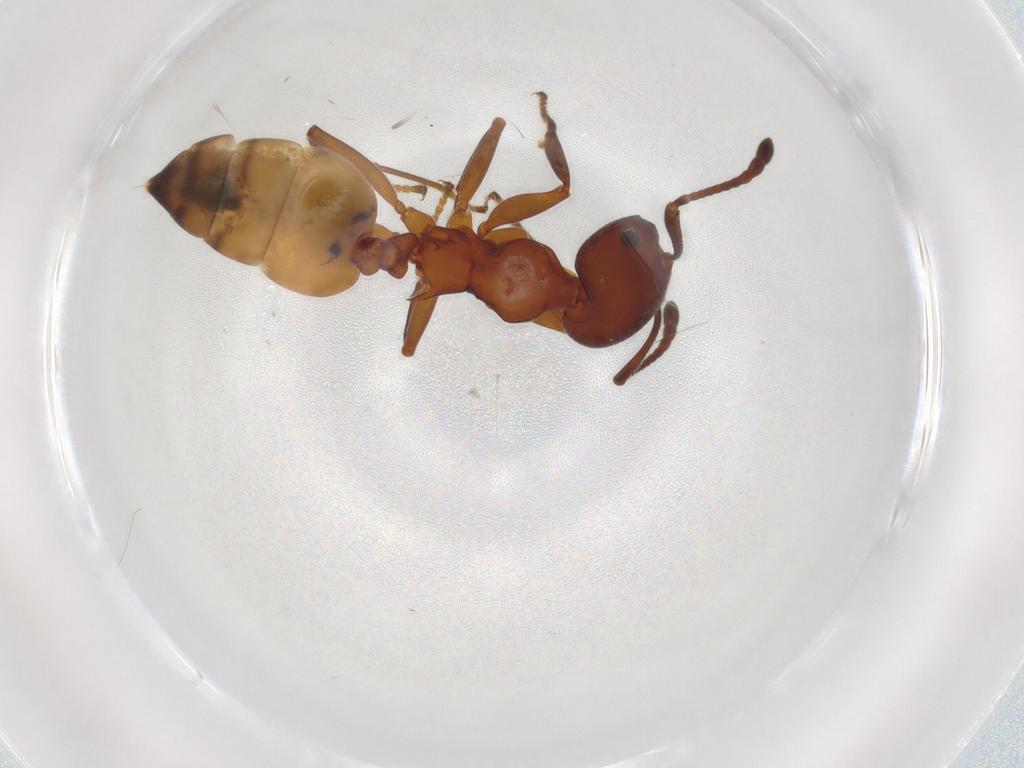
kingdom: Animalia
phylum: Arthropoda
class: Insecta
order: Hymenoptera
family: Formicidae
